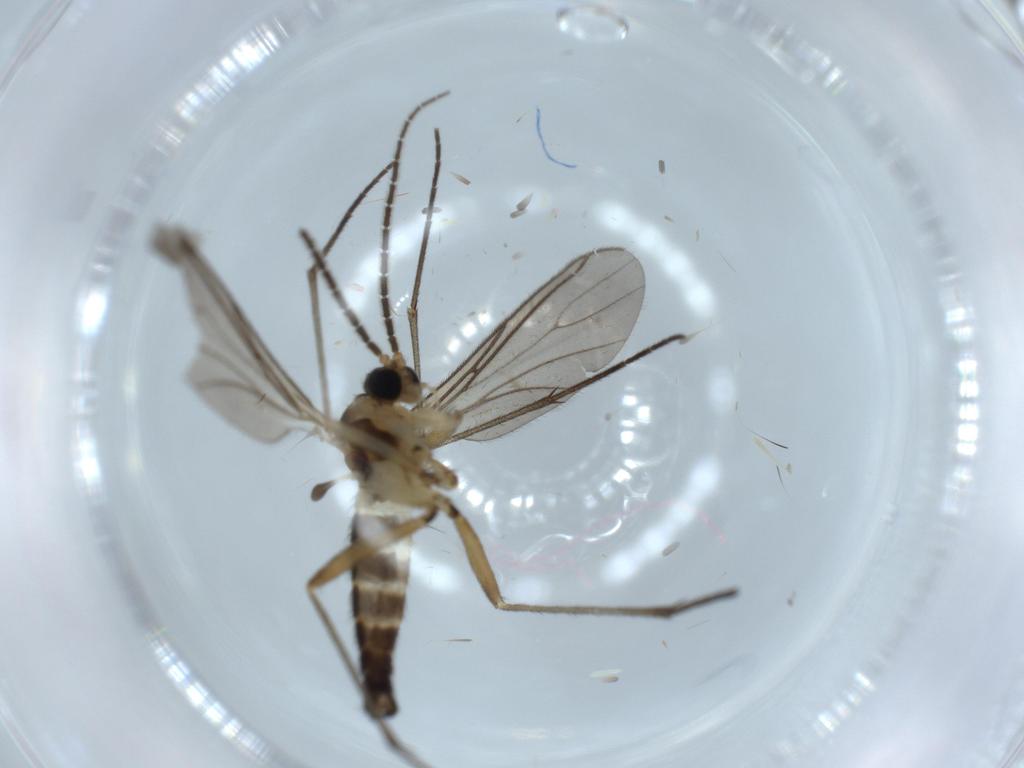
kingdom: Animalia
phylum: Arthropoda
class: Insecta
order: Diptera
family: Sciaridae
